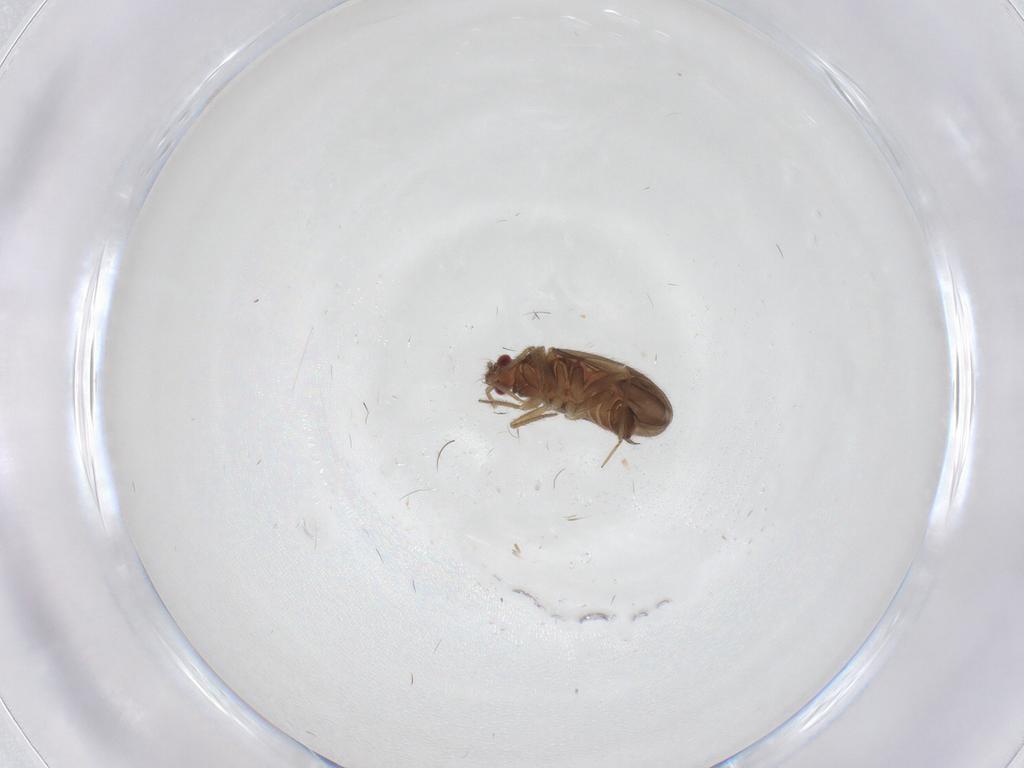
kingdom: Animalia
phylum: Arthropoda
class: Insecta
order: Hemiptera
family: Ceratocombidae
